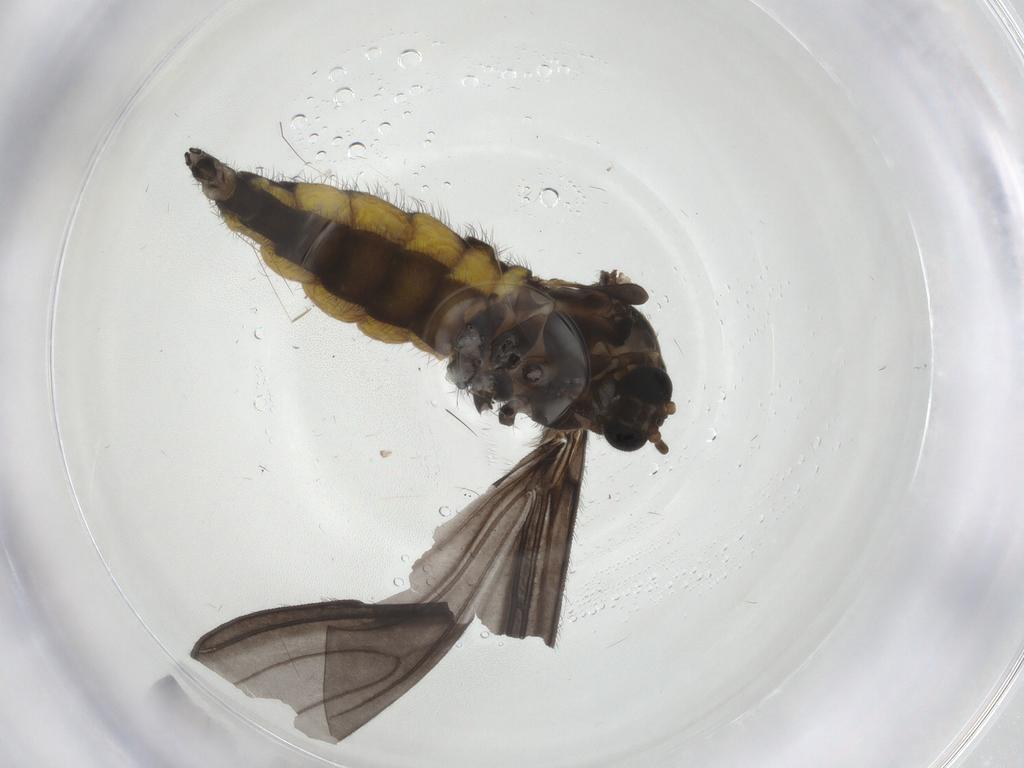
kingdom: Animalia
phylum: Arthropoda
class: Insecta
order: Diptera
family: Sciaridae
